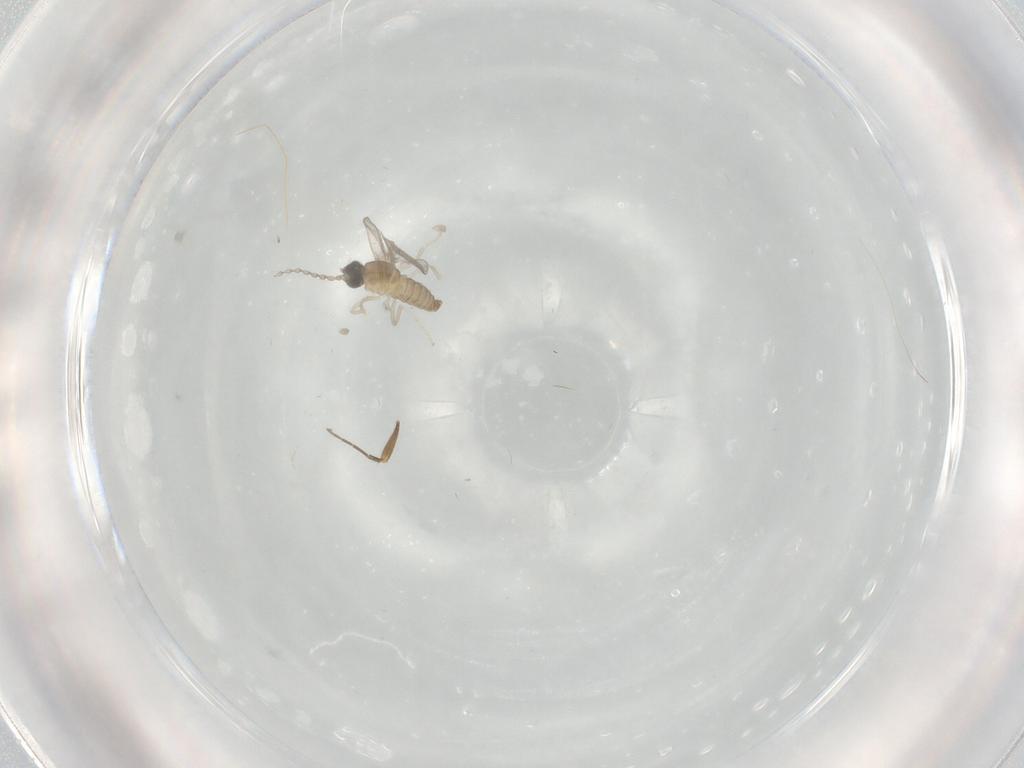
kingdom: Animalia
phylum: Arthropoda
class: Insecta
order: Diptera
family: Phoridae
